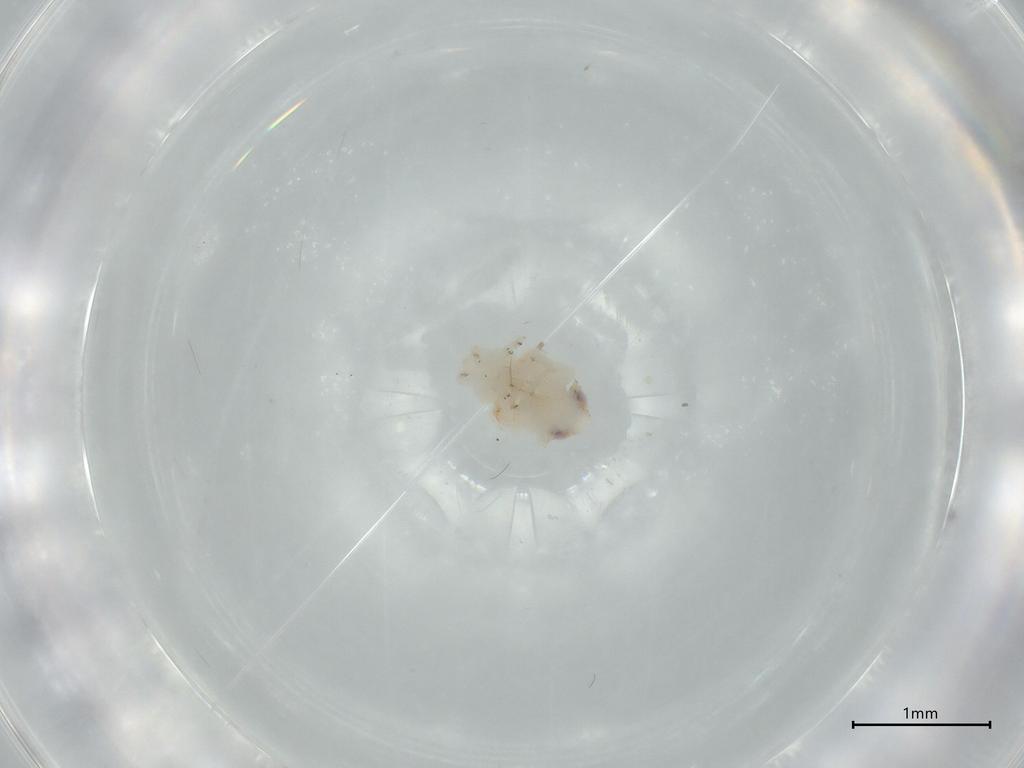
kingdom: Animalia
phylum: Arthropoda
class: Insecta
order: Hemiptera
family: Nogodinidae
